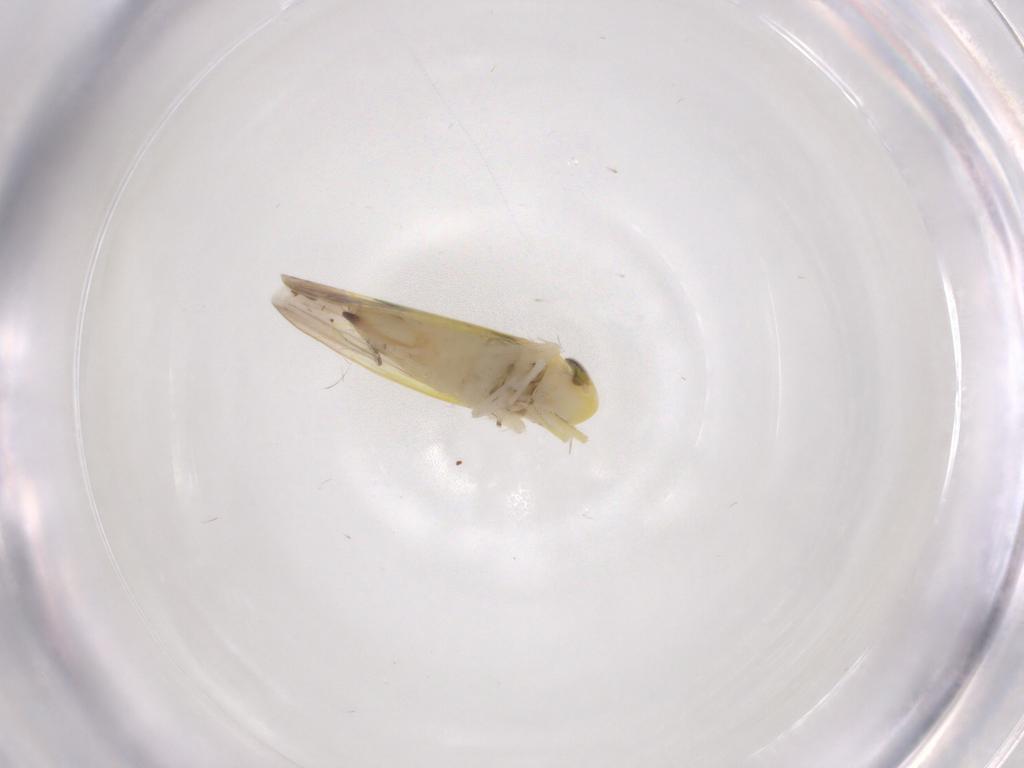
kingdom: Animalia
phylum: Arthropoda
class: Insecta
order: Hemiptera
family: Cicadellidae
